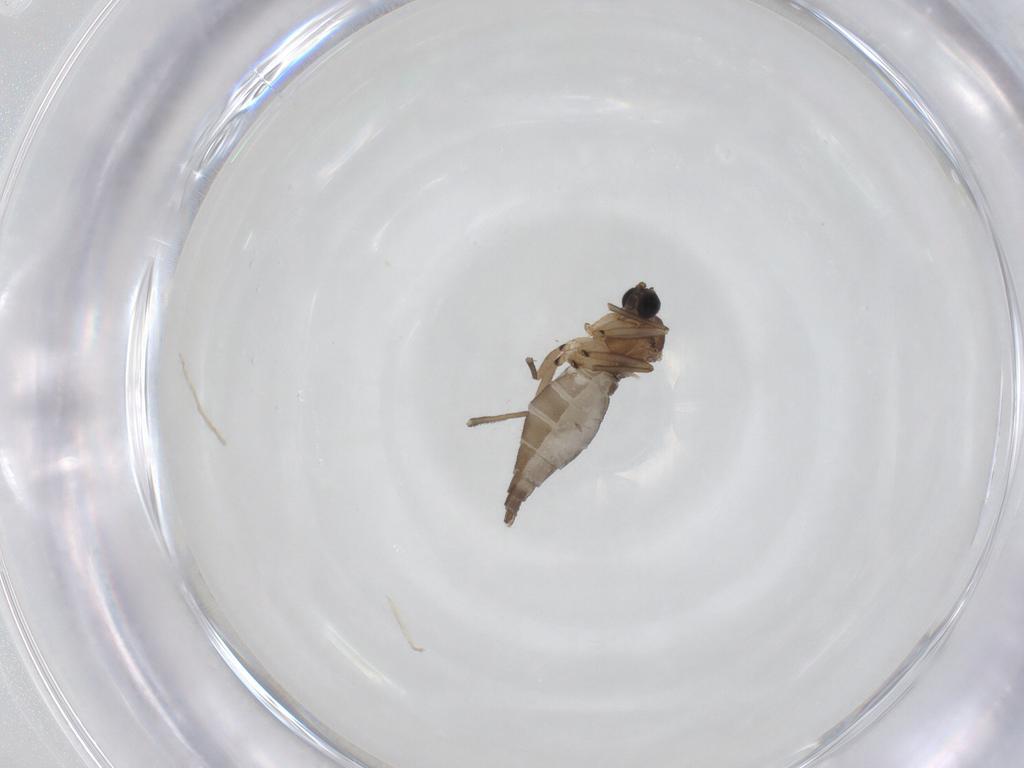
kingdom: Animalia
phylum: Arthropoda
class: Insecta
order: Diptera
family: Sciaridae
